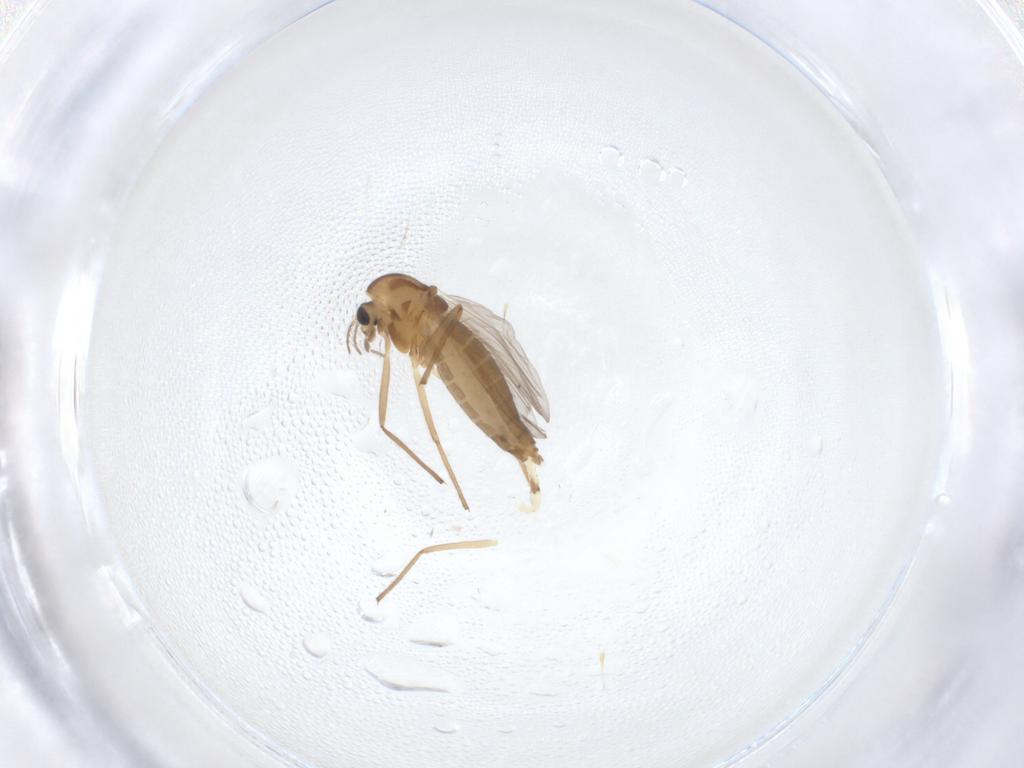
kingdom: Animalia
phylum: Arthropoda
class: Insecta
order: Diptera
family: Chironomidae
